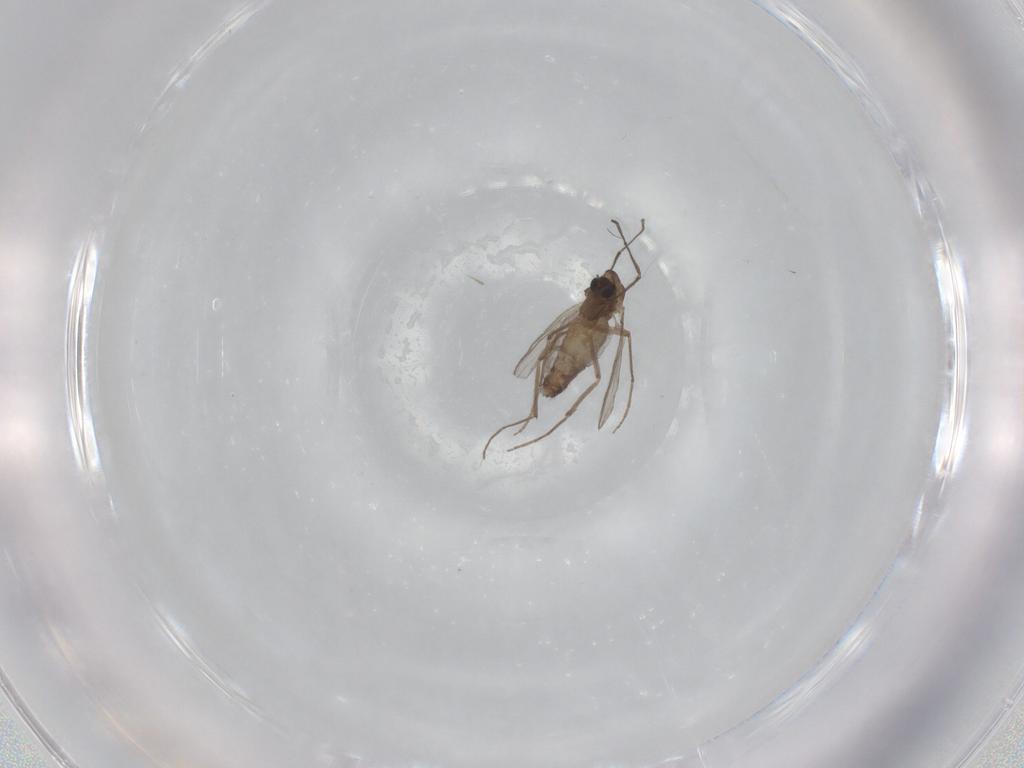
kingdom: Animalia
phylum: Arthropoda
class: Insecta
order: Diptera
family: Chironomidae
